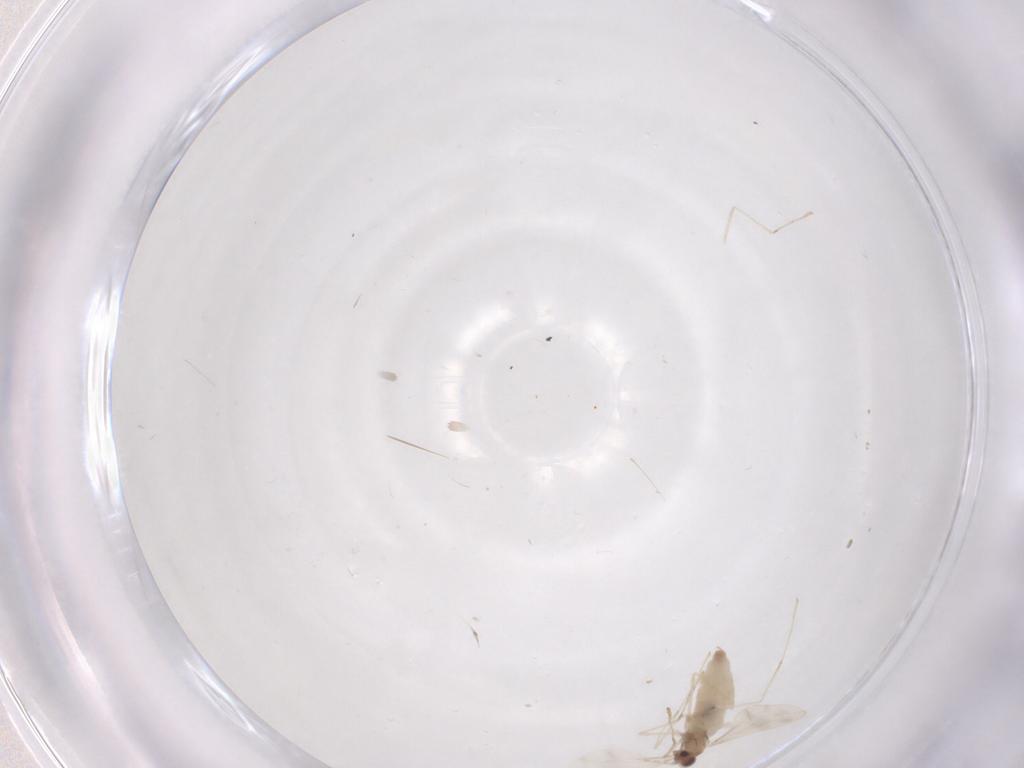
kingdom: Animalia
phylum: Arthropoda
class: Insecta
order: Diptera
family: Cecidomyiidae
